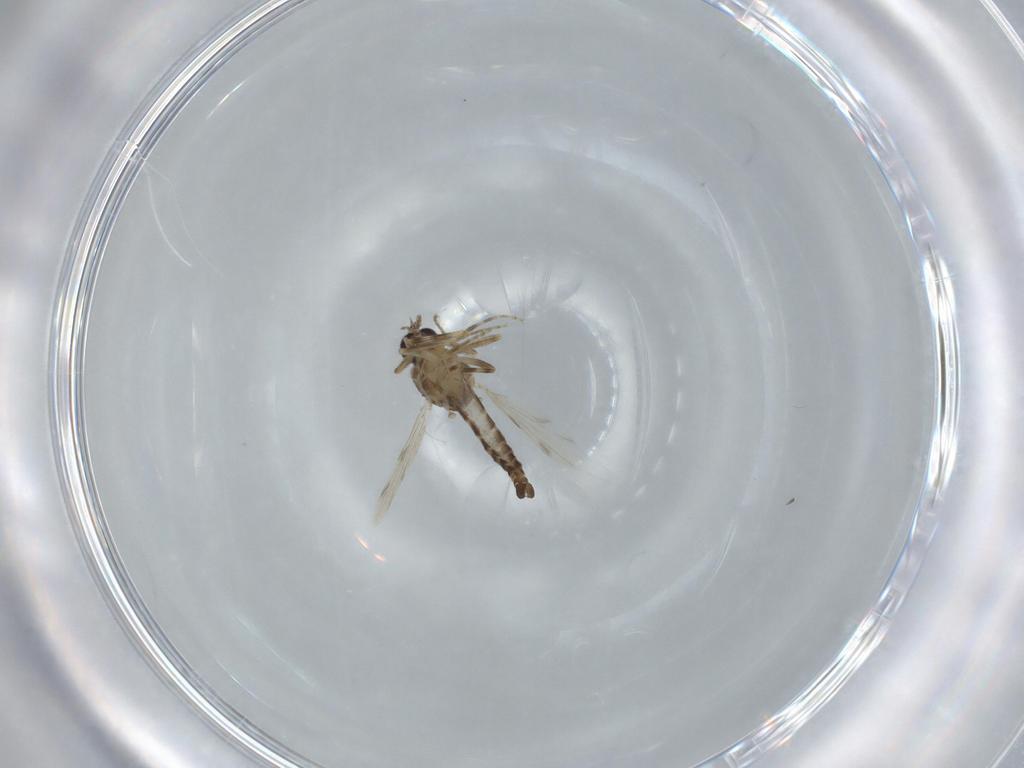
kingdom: Animalia
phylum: Arthropoda
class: Insecta
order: Diptera
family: Ceratopogonidae
